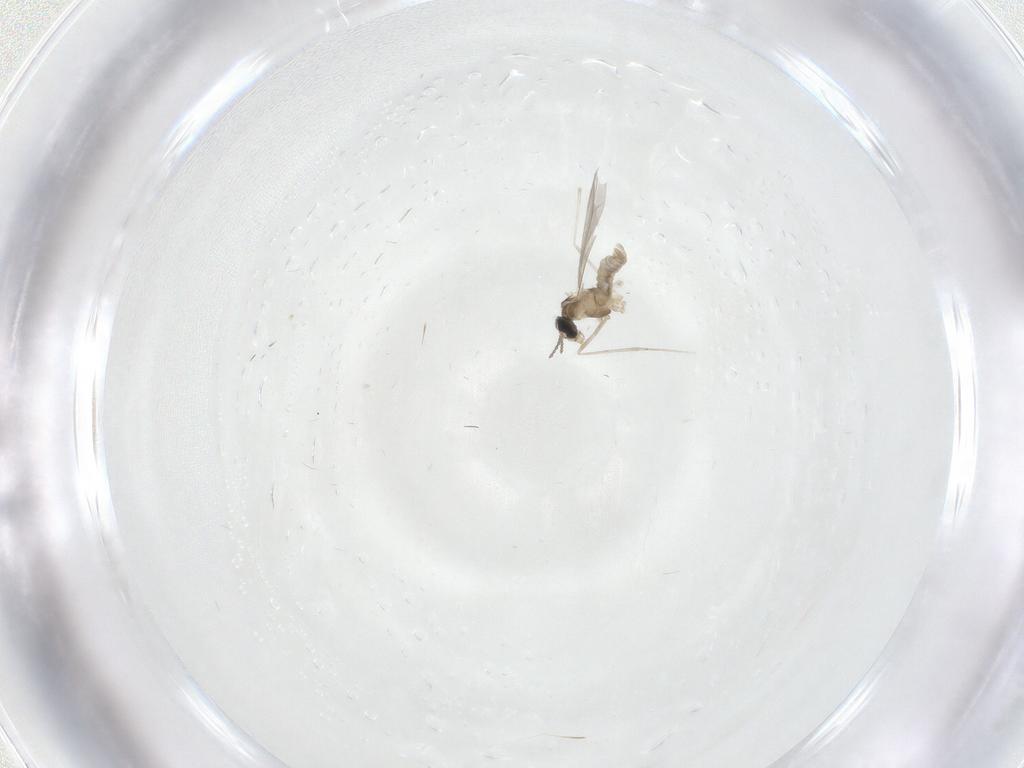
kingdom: Animalia
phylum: Arthropoda
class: Insecta
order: Diptera
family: Cecidomyiidae
